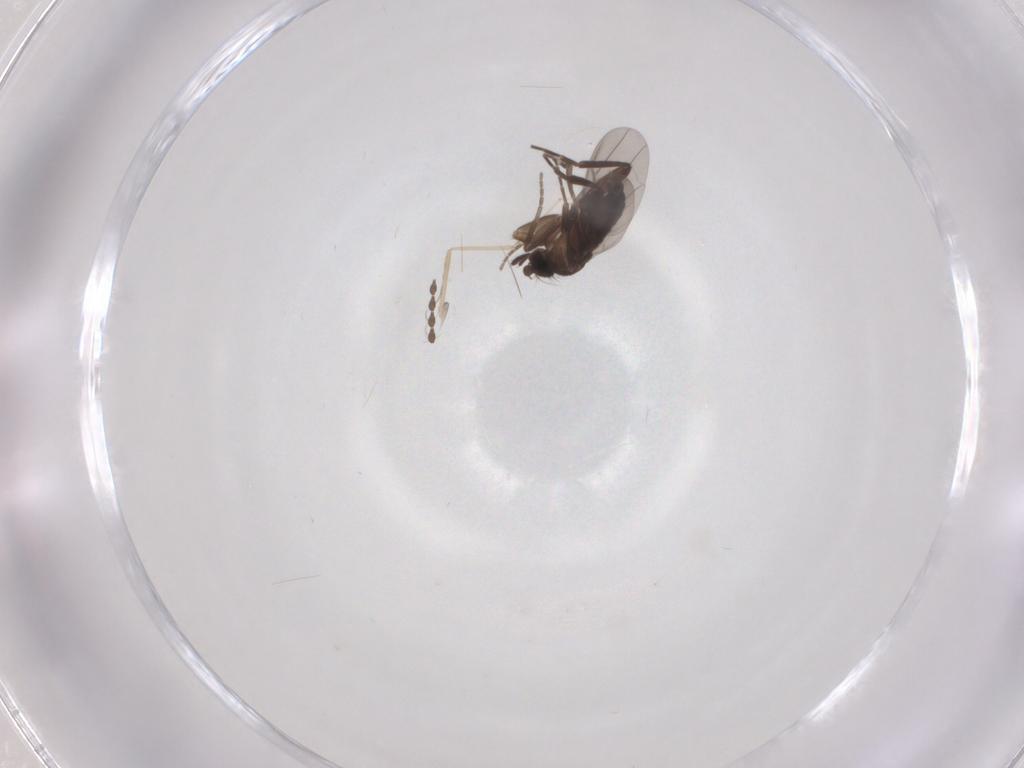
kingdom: Animalia
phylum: Arthropoda
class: Insecta
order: Diptera
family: Cecidomyiidae
